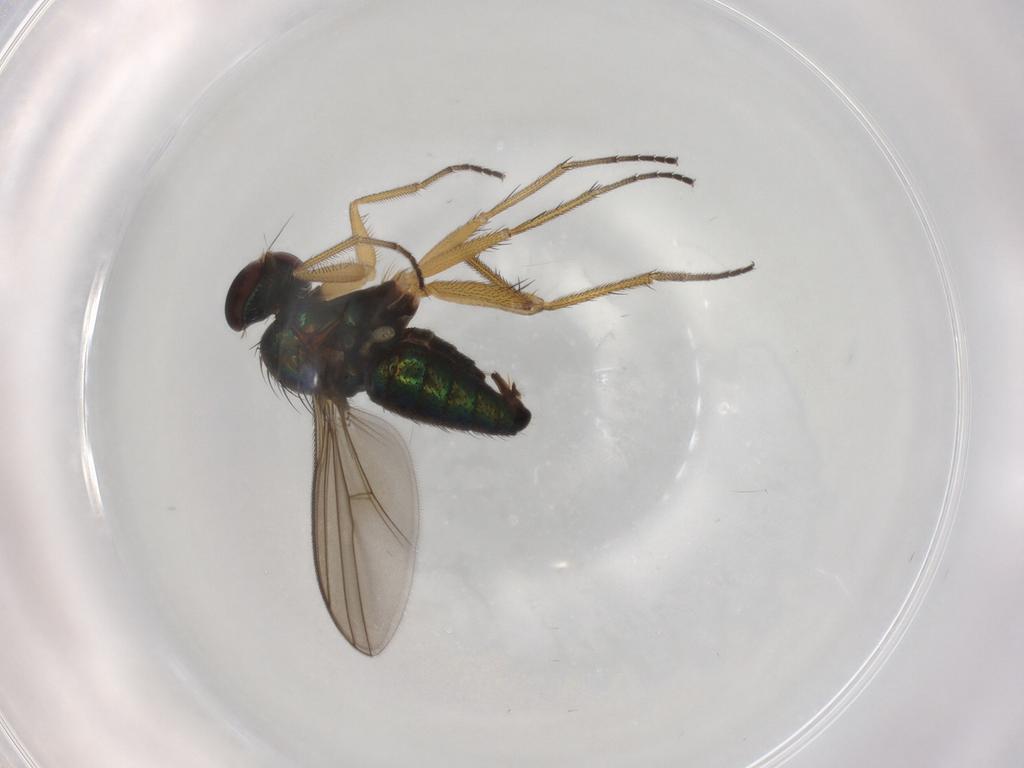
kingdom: Animalia
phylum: Arthropoda
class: Insecta
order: Diptera
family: Dolichopodidae
